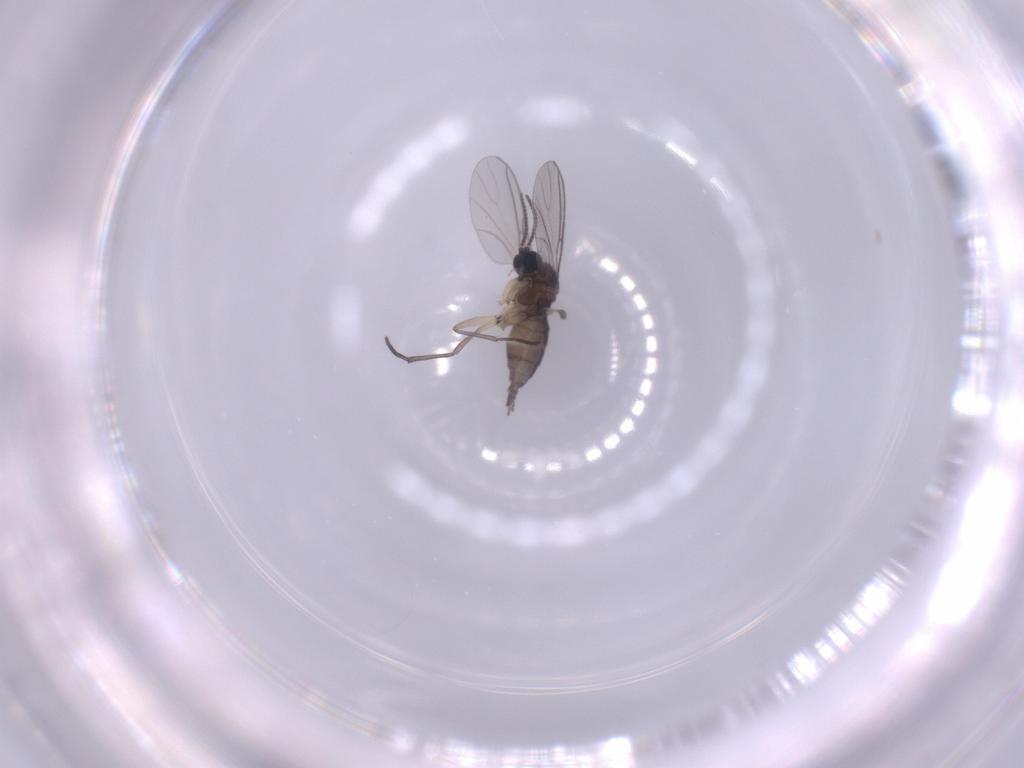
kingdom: Animalia
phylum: Arthropoda
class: Insecta
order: Diptera
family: Sciaridae
